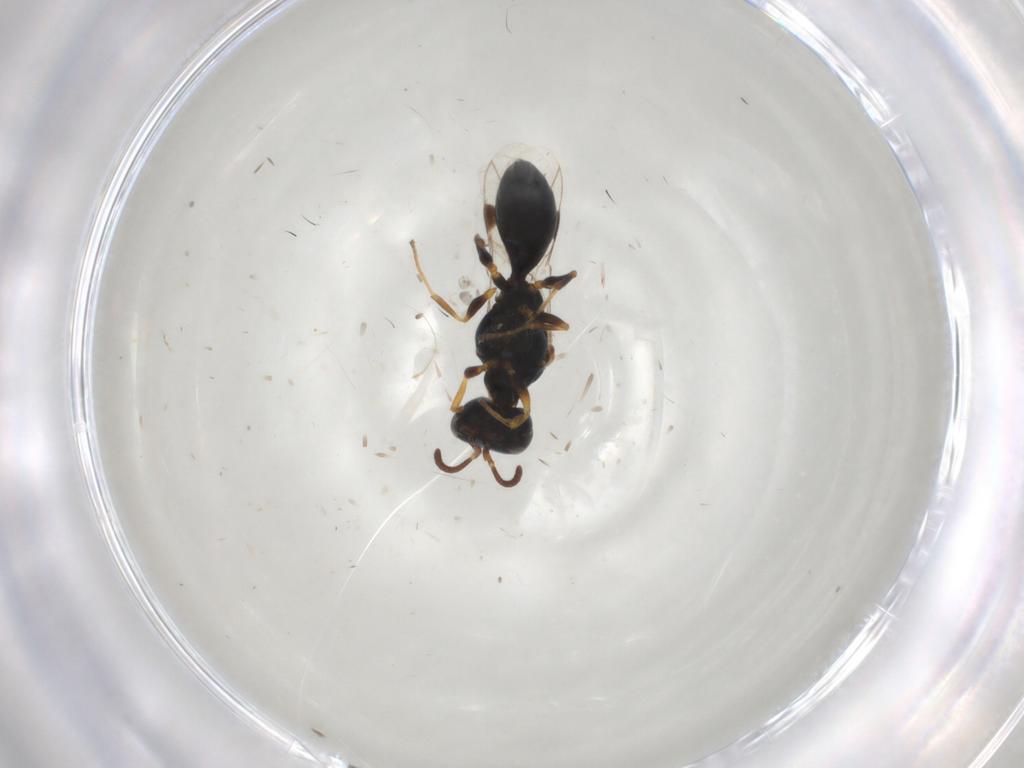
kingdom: Animalia
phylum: Arthropoda
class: Insecta
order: Hymenoptera
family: Pemphredonidae
